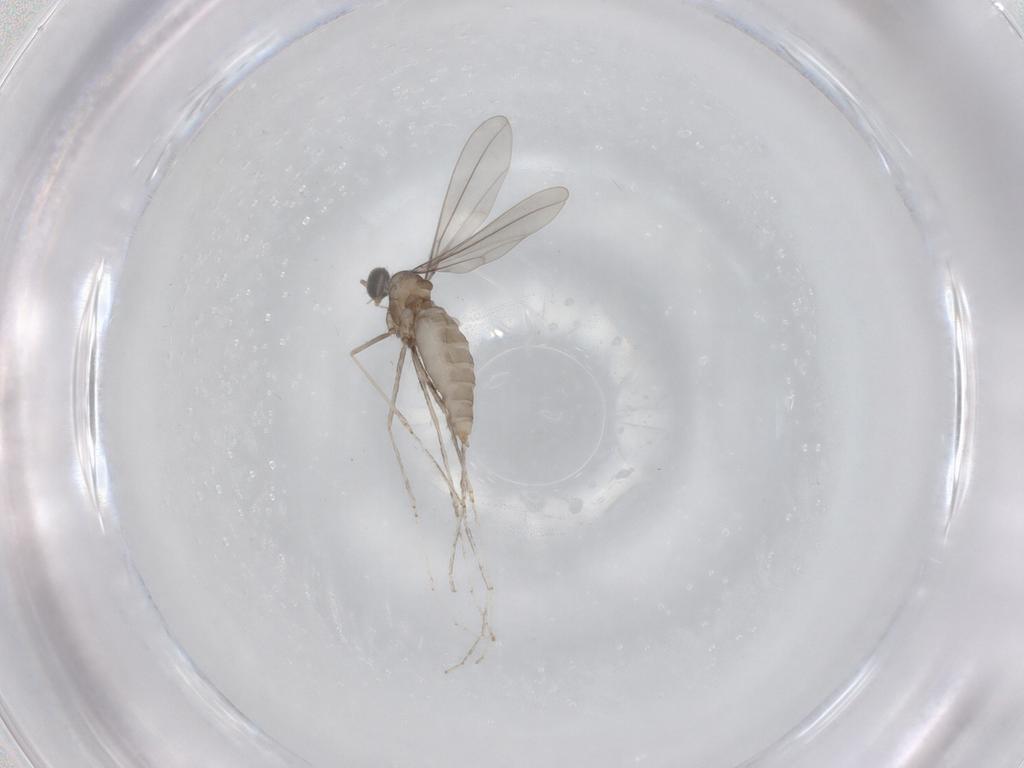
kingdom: Animalia
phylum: Arthropoda
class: Insecta
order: Diptera
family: Cecidomyiidae
